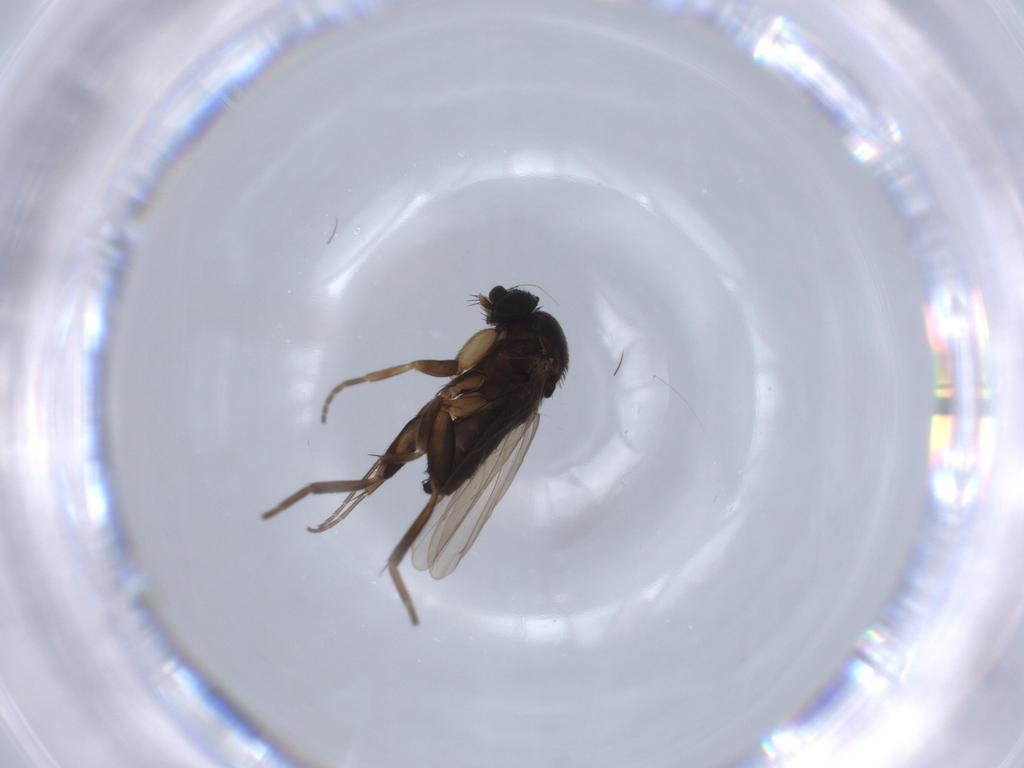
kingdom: Animalia
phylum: Arthropoda
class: Insecta
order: Diptera
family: Phoridae
